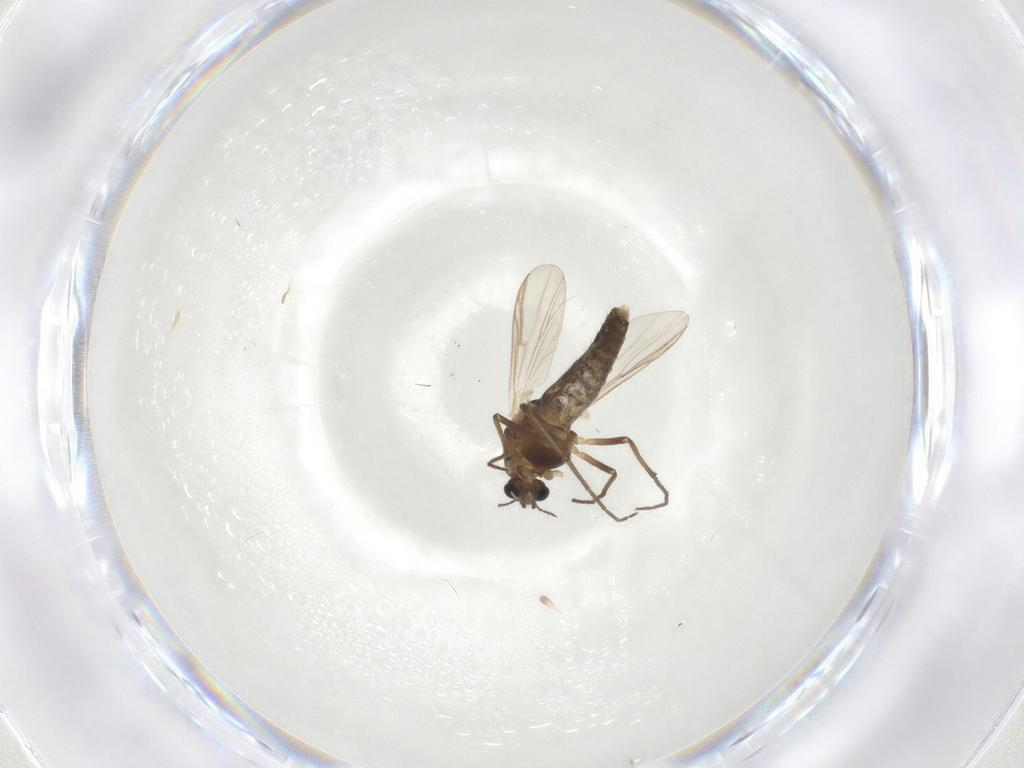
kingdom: Animalia
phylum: Arthropoda
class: Insecta
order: Diptera
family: Chironomidae
